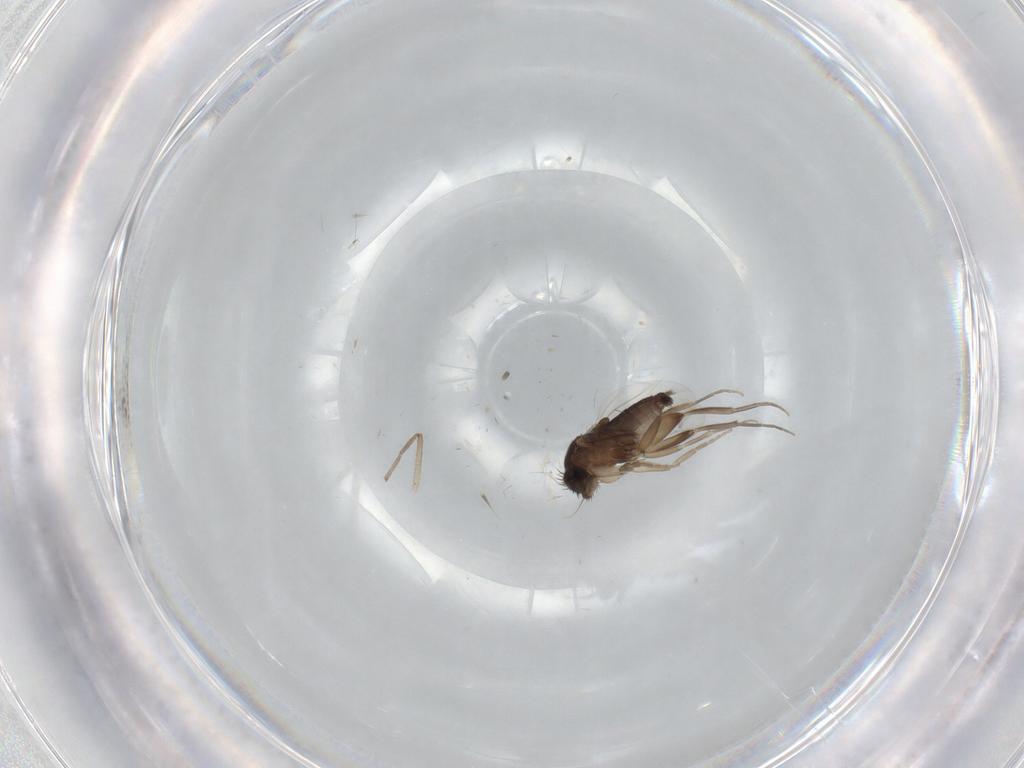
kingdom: Animalia
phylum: Arthropoda
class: Insecta
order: Diptera
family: Phoridae
